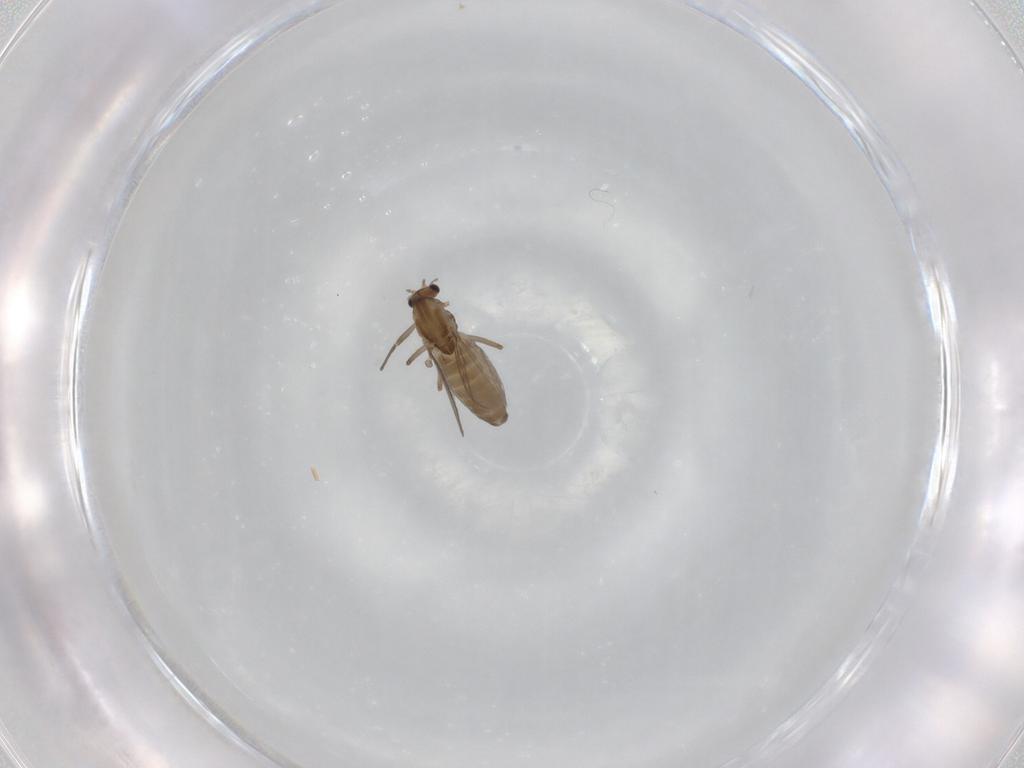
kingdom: Animalia
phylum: Arthropoda
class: Insecta
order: Diptera
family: Chironomidae
